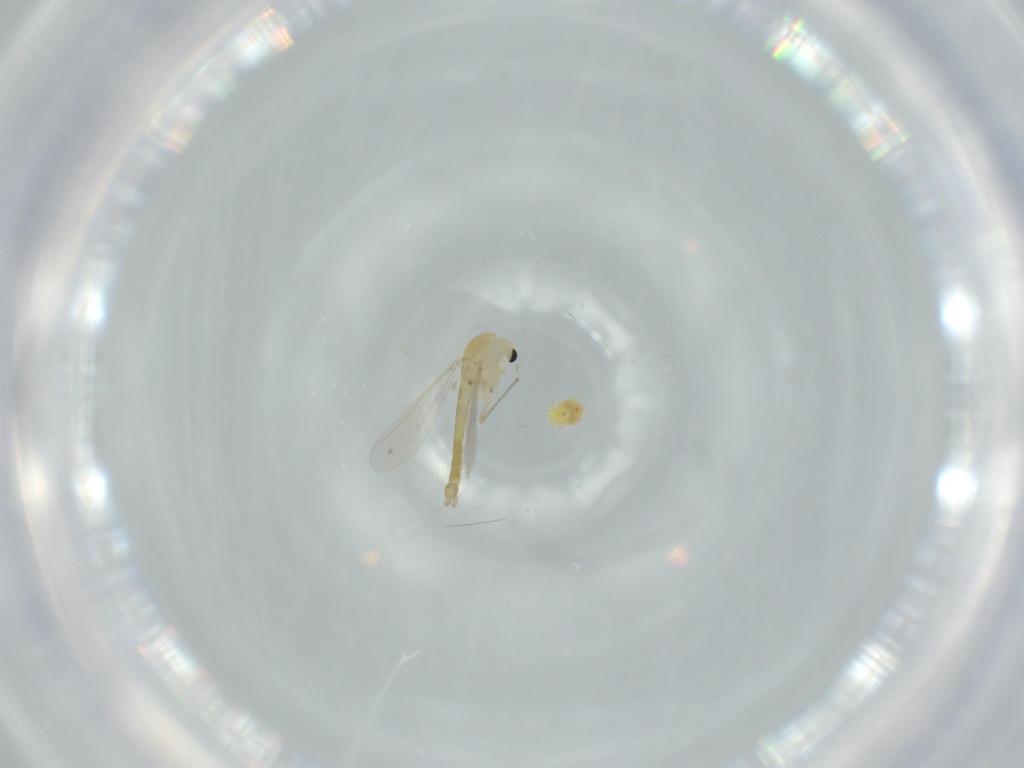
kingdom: Animalia
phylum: Arthropoda
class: Insecta
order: Diptera
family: Chironomidae
